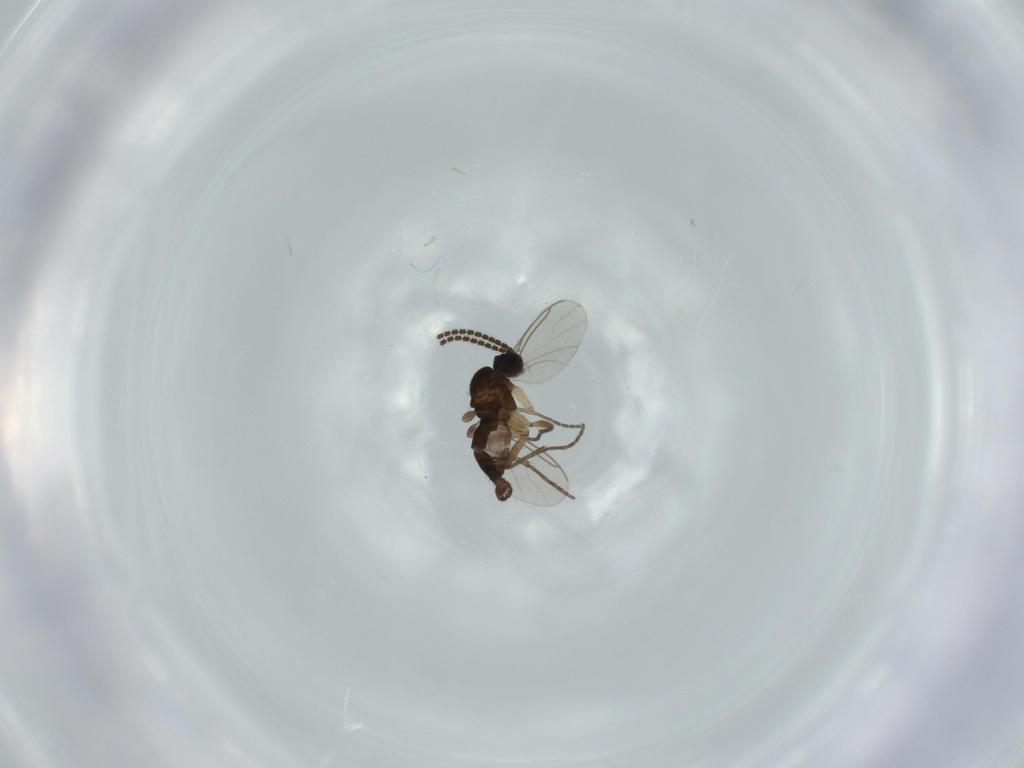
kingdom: Animalia
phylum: Arthropoda
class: Insecta
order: Diptera
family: Sciaridae
